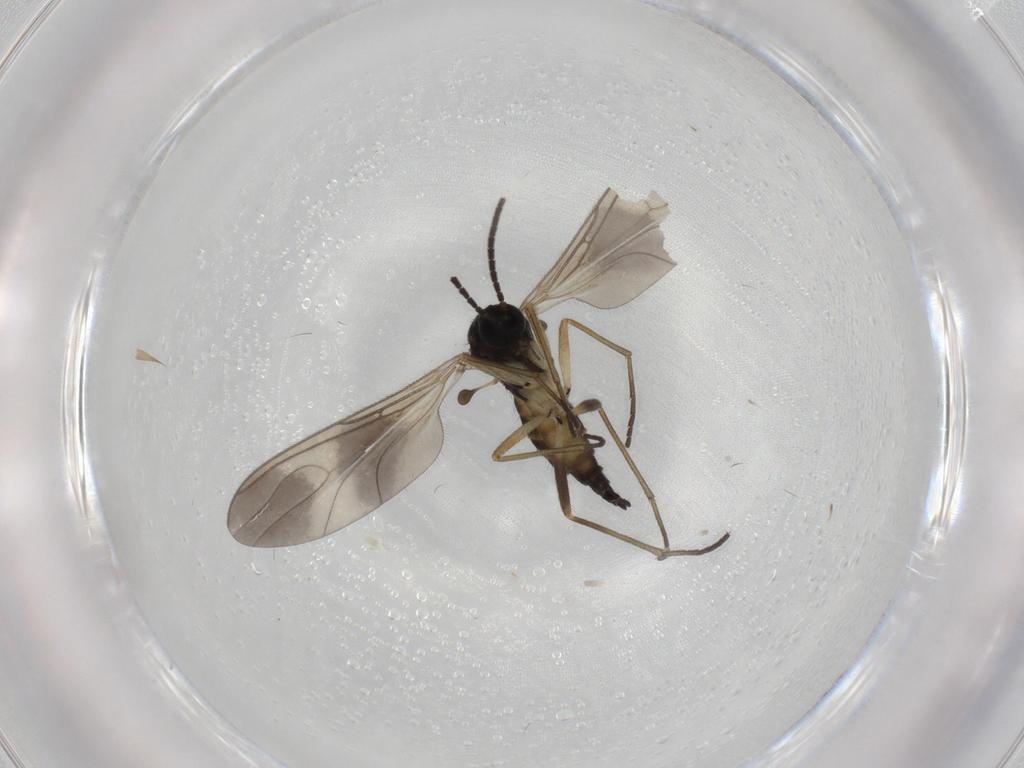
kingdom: Animalia
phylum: Arthropoda
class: Insecta
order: Diptera
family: Sciaridae
